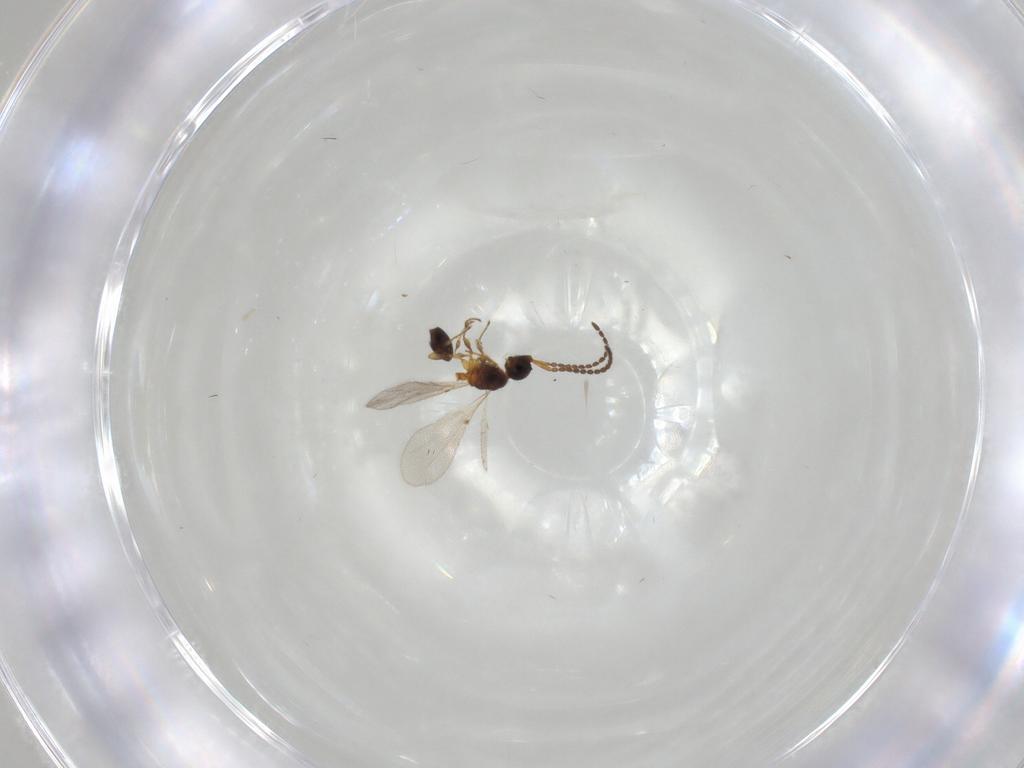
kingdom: Animalia
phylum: Arthropoda
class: Insecta
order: Hymenoptera
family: Diapriidae
